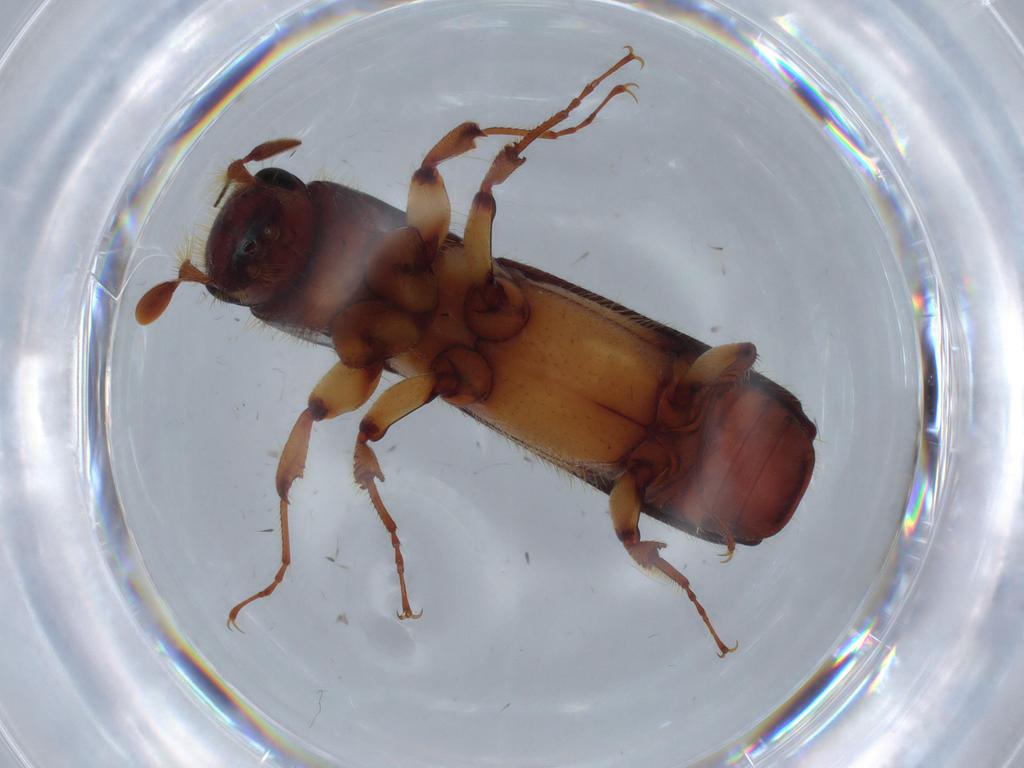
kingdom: Animalia
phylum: Arthropoda
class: Insecta
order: Coleoptera
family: Curculionidae
